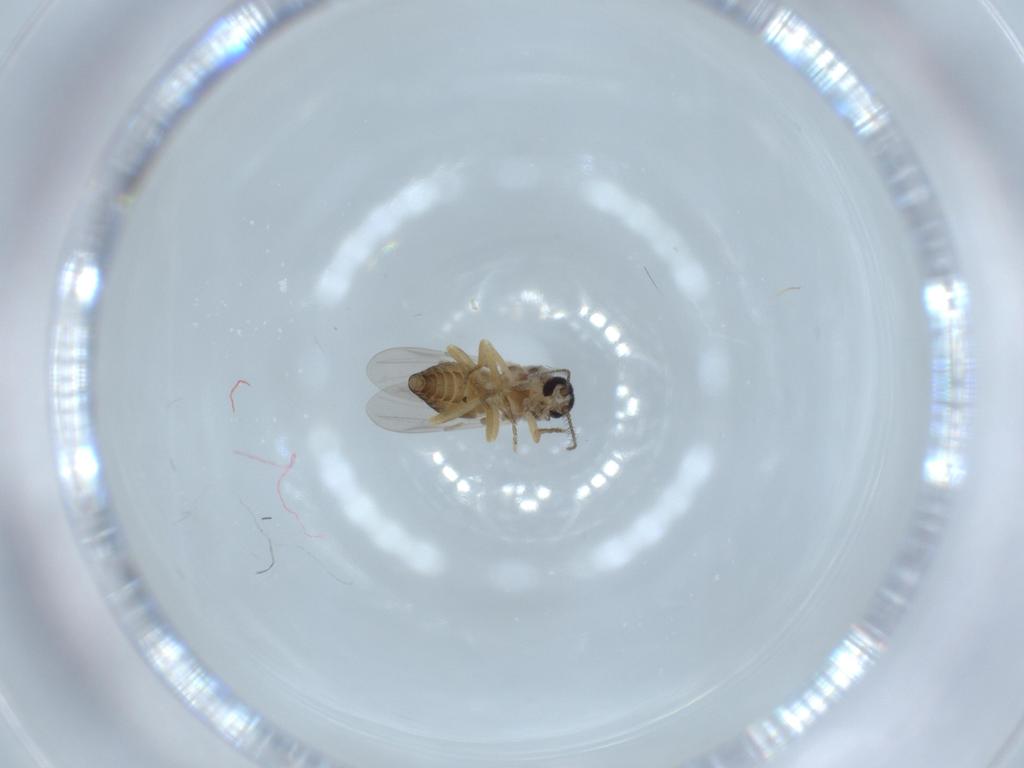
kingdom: Animalia
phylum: Arthropoda
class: Insecta
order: Diptera
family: Ceratopogonidae
